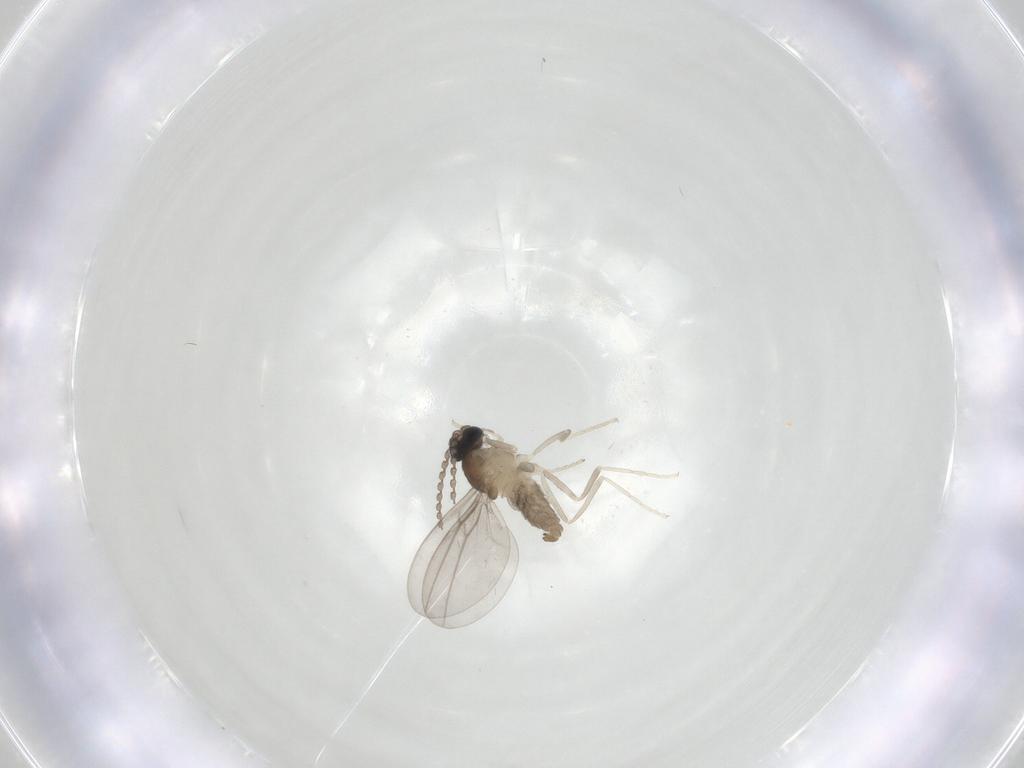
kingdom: Animalia
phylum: Arthropoda
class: Insecta
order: Diptera
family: Cecidomyiidae
